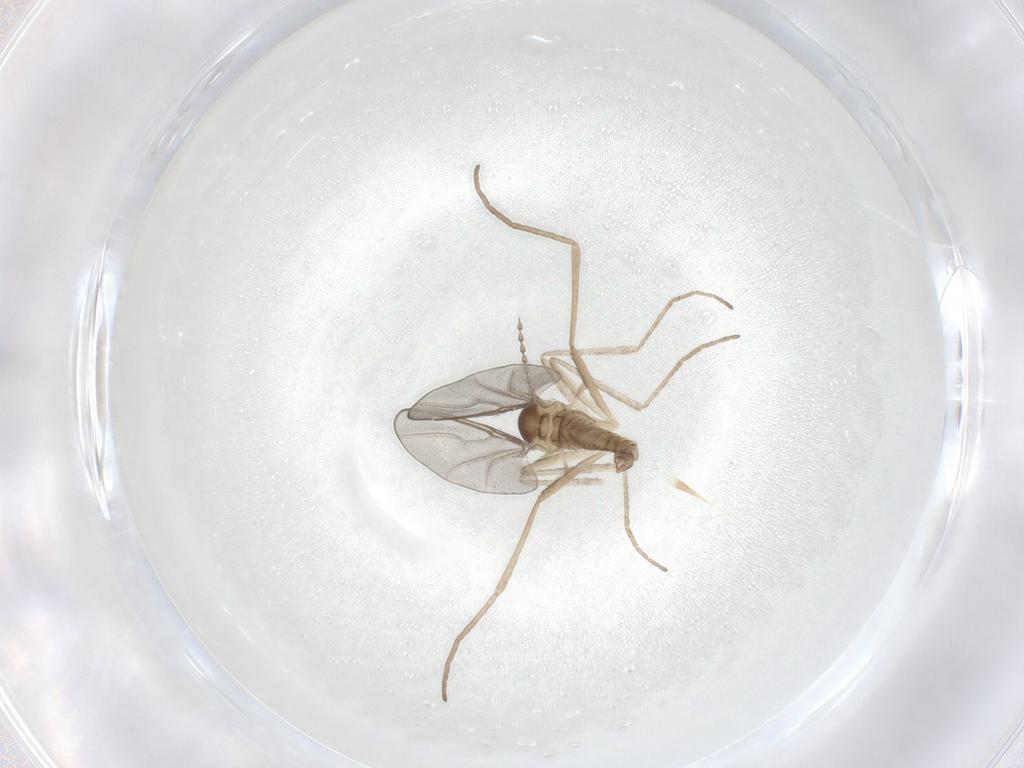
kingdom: Animalia
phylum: Arthropoda
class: Insecta
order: Diptera
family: Cecidomyiidae
